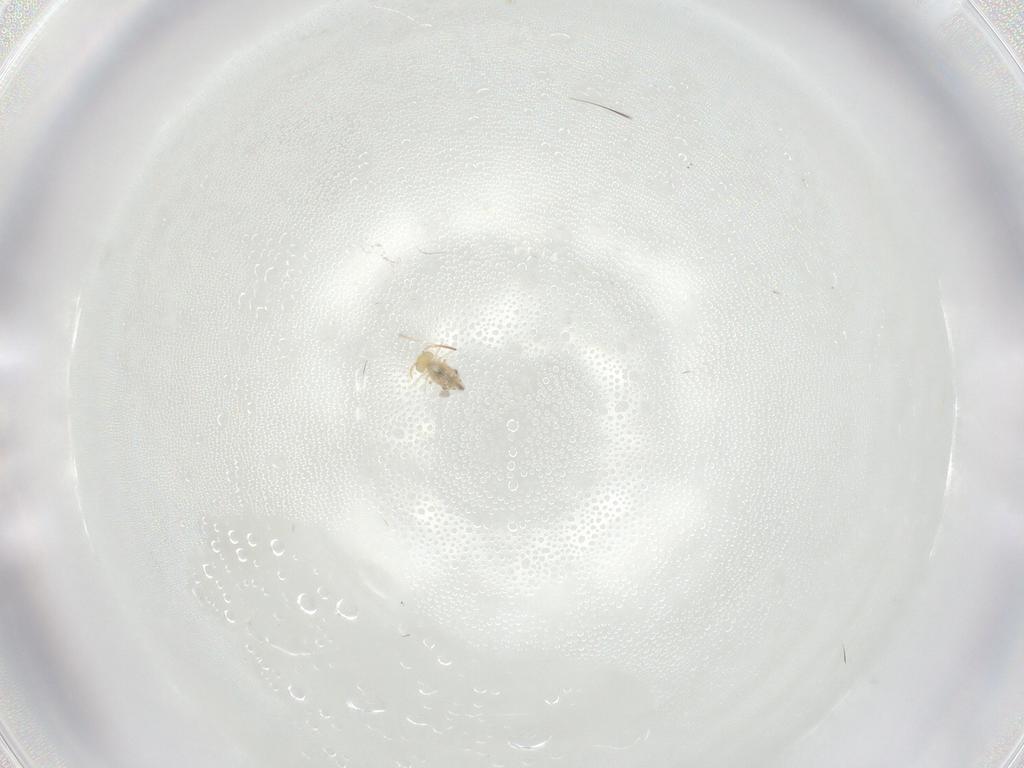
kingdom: Animalia
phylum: Arthropoda
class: Collembola
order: Symphypleona
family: Bourletiellidae
